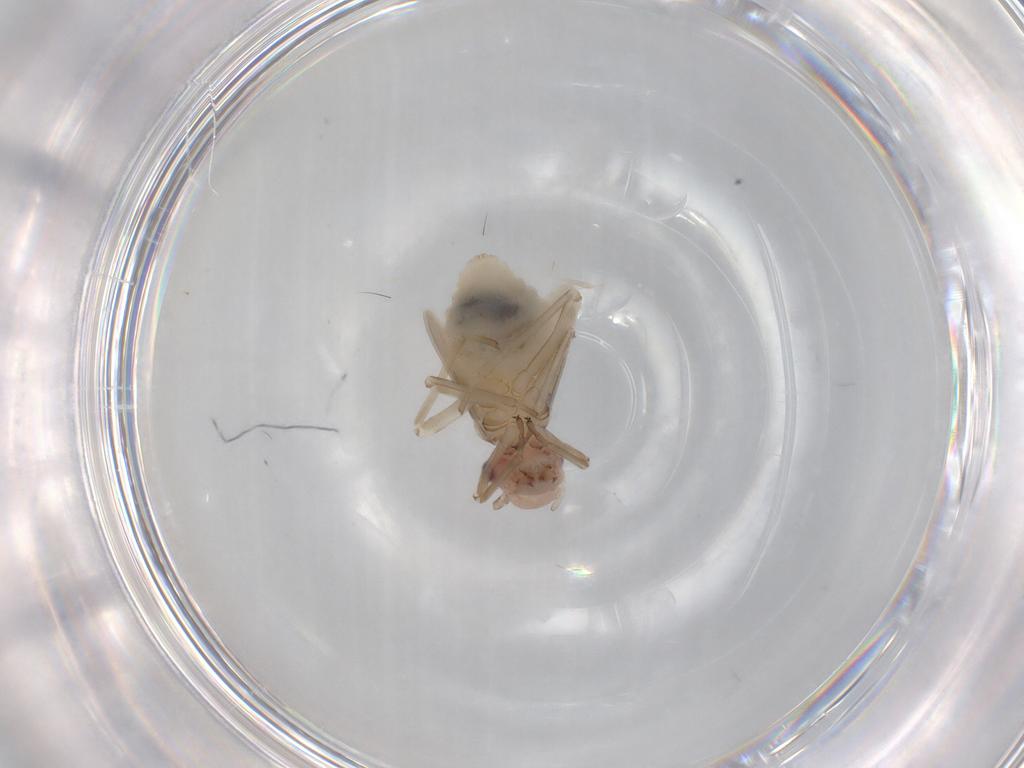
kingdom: Animalia
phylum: Arthropoda
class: Insecta
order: Psocodea
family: Stenopsocidae
